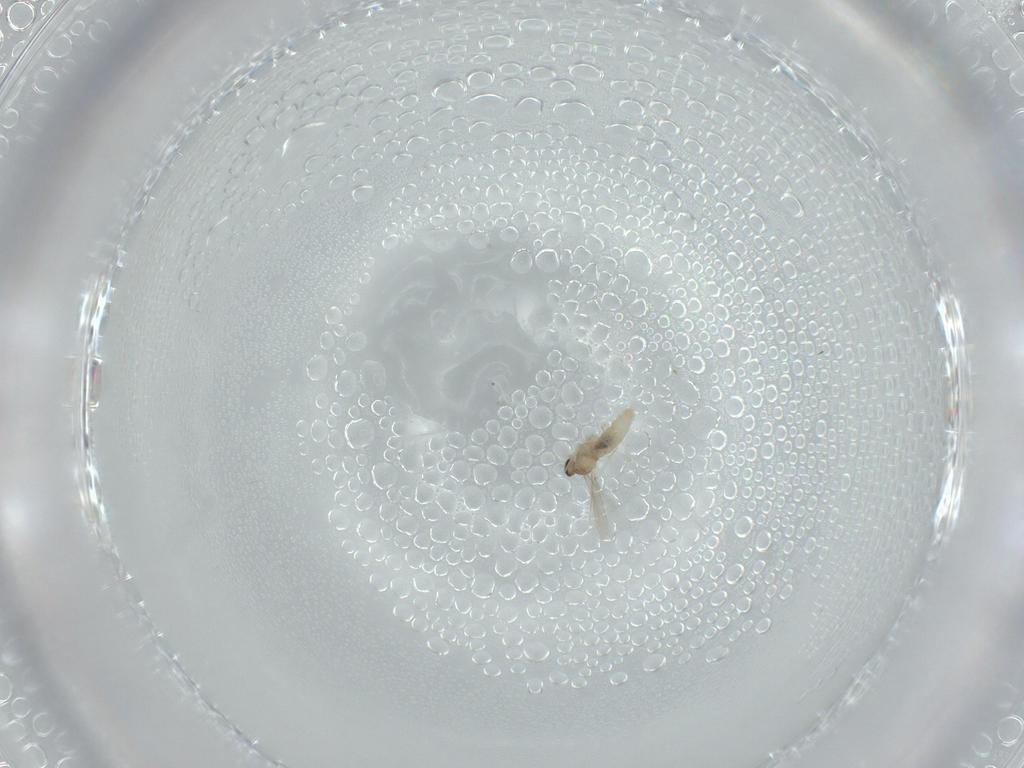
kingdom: Animalia
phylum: Arthropoda
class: Insecta
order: Diptera
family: Cecidomyiidae
